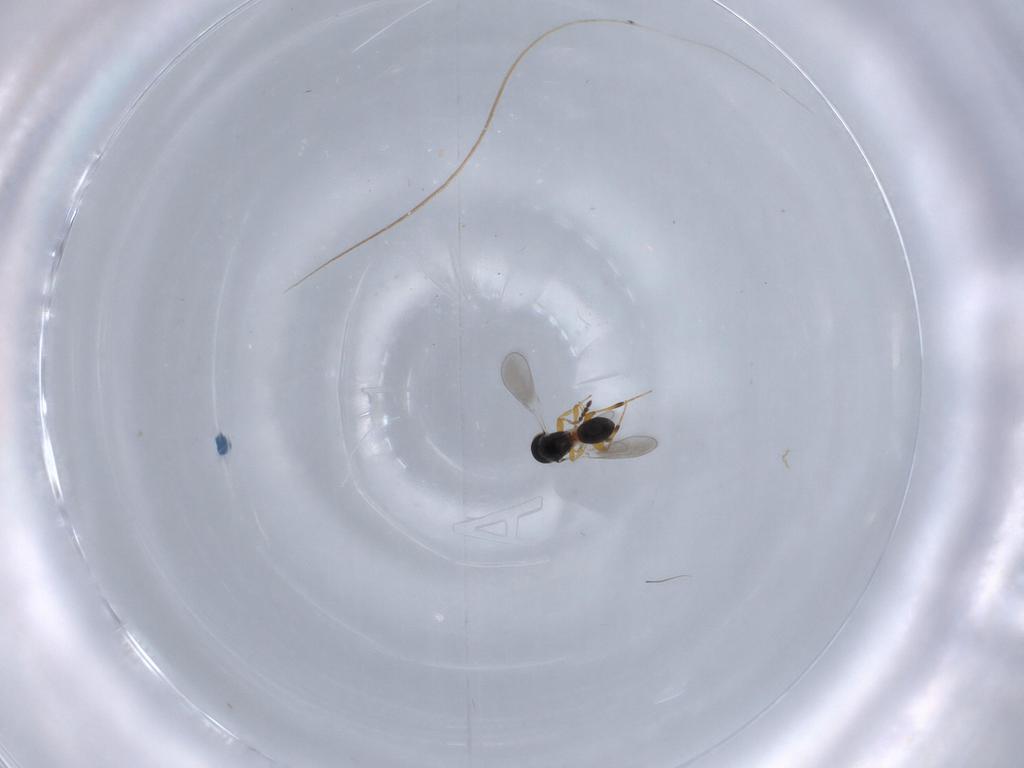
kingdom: Animalia
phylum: Arthropoda
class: Insecta
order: Hymenoptera
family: Platygastridae
